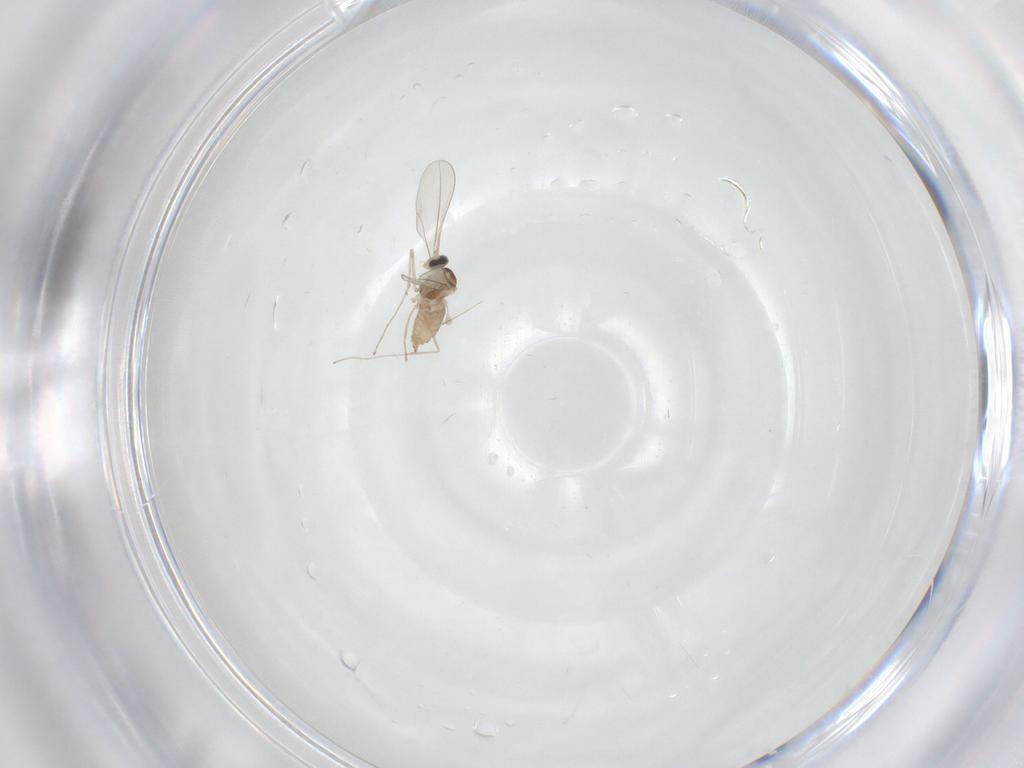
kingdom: Animalia
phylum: Arthropoda
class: Insecta
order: Diptera
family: Cecidomyiidae
